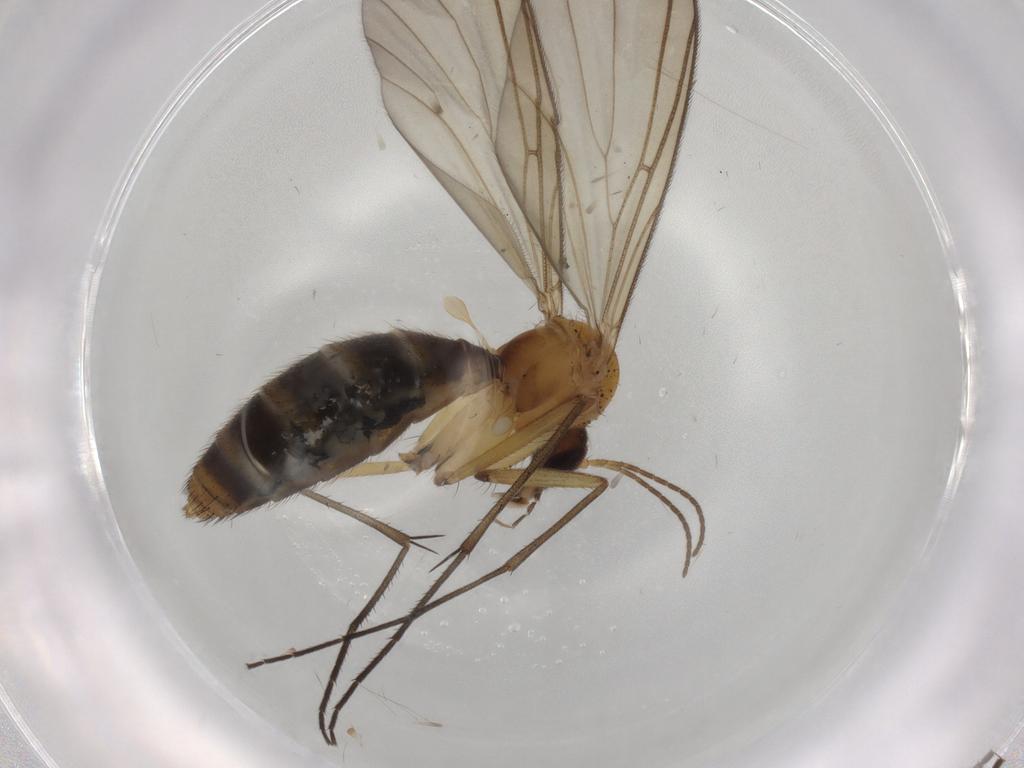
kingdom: Animalia
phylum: Arthropoda
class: Insecta
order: Diptera
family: Mycetophilidae
